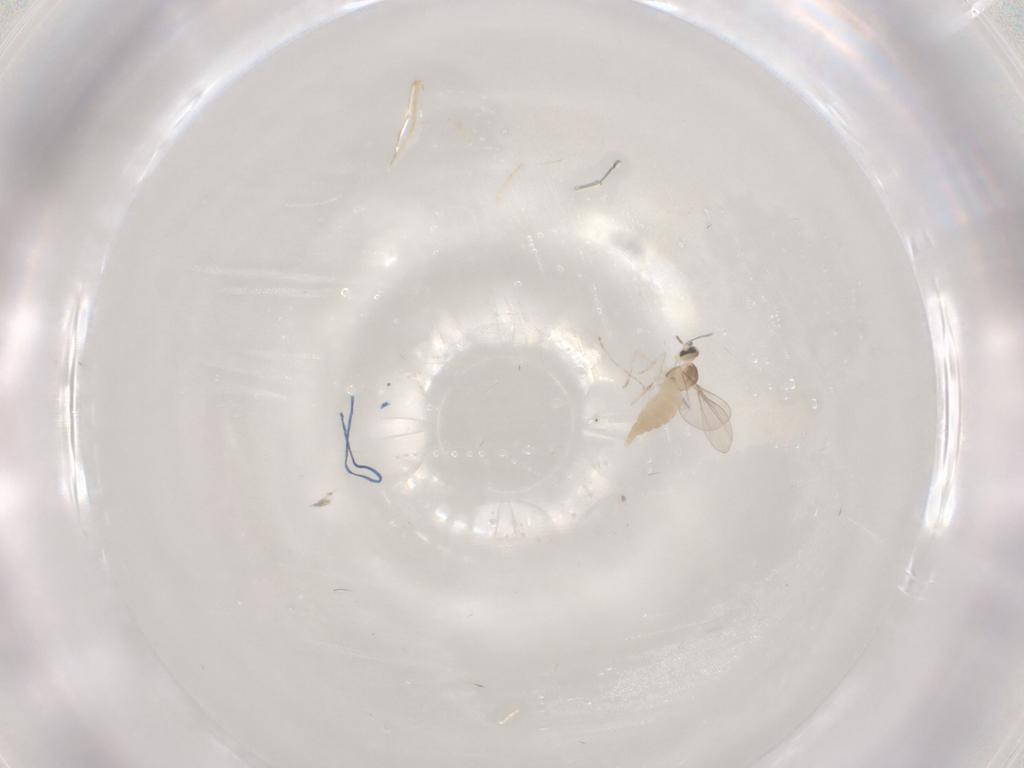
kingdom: Animalia
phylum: Arthropoda
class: Insecta
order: Diptera
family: Cecidomyiidae
